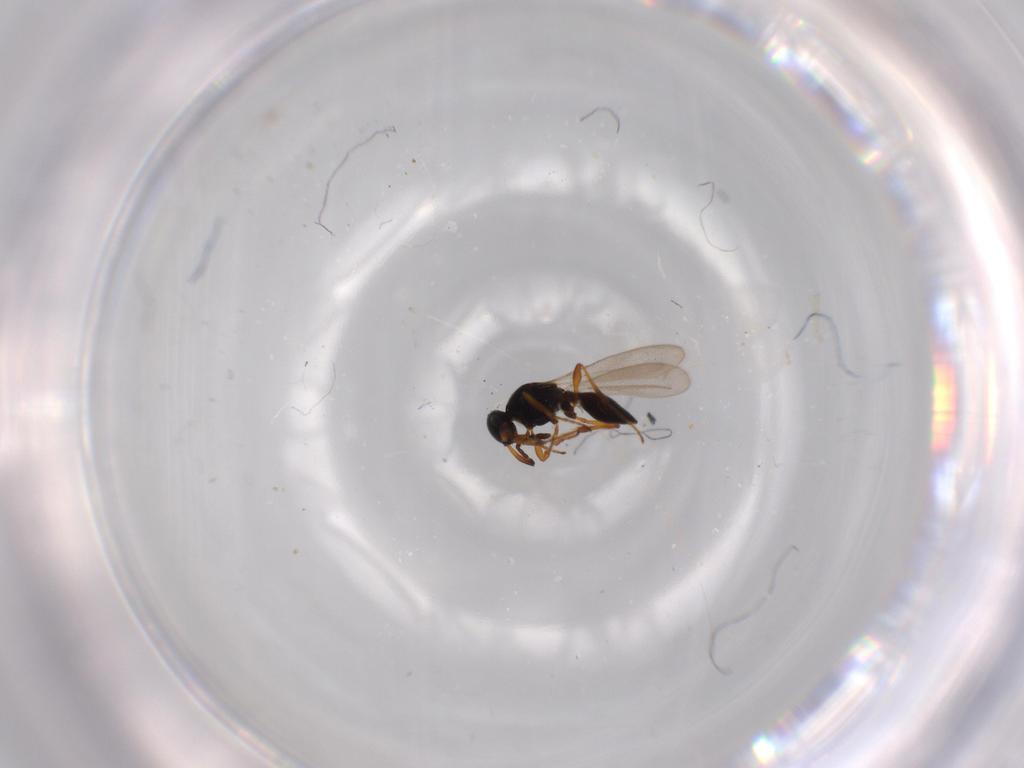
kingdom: Animalia
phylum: Arthropoda
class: Insecta
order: Hymenoptera
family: Platygastridae
